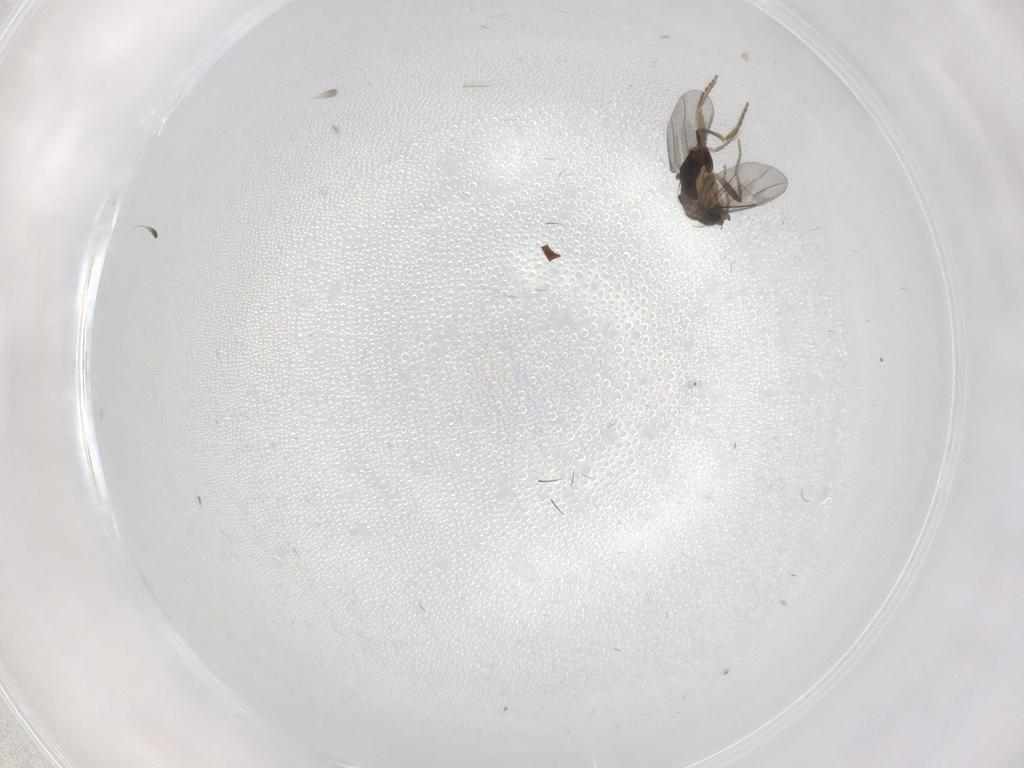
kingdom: Animalia
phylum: Arthropoda
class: Insecta
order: Diptera
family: Phoridae
